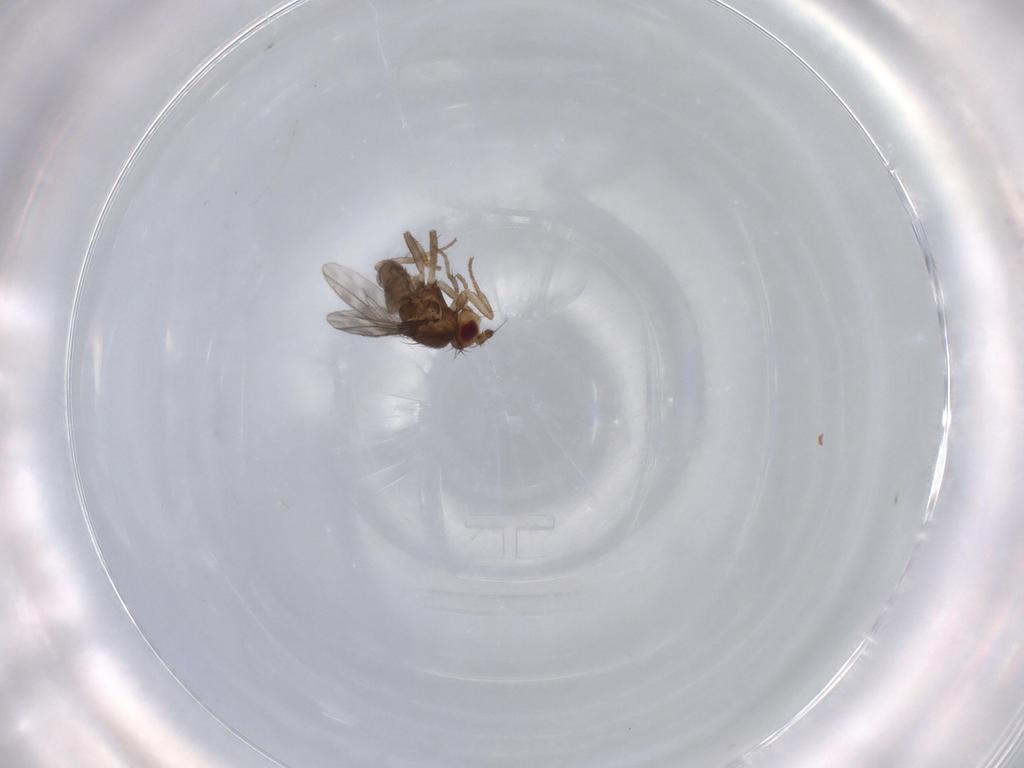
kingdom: Animalia
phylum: Arthropoda
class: Insecta
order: Diptera
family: Sphaeroceridae
